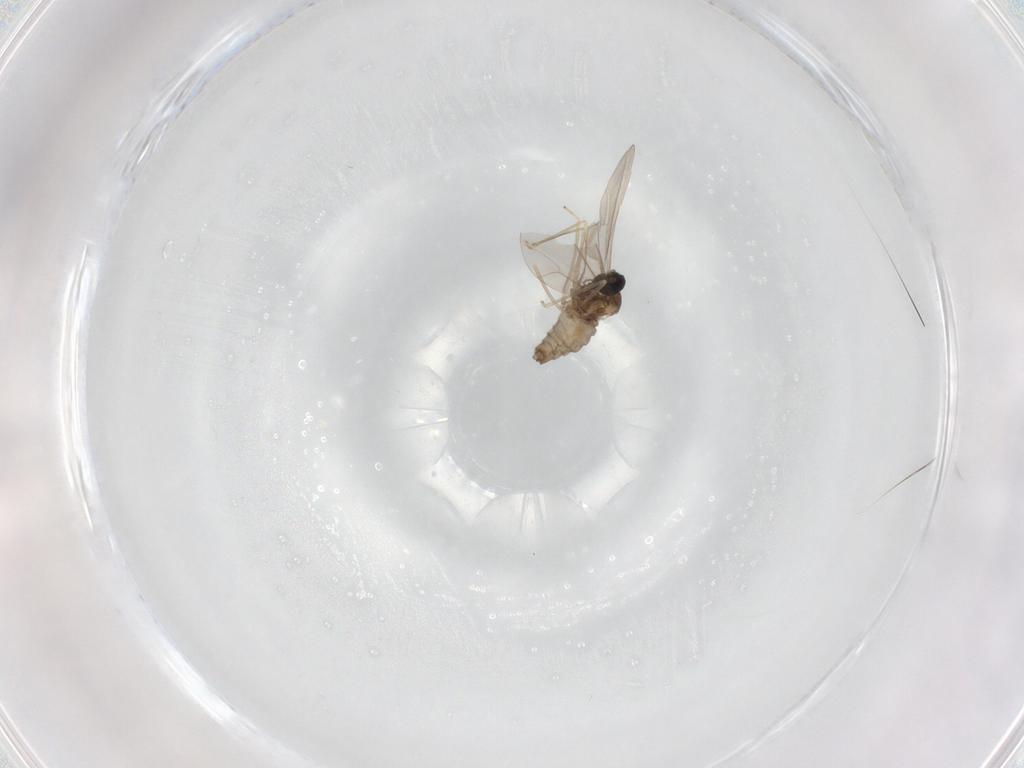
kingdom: Animalia
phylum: Arthropoda
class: Insecta
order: Diptera
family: Cecidomyiidae
